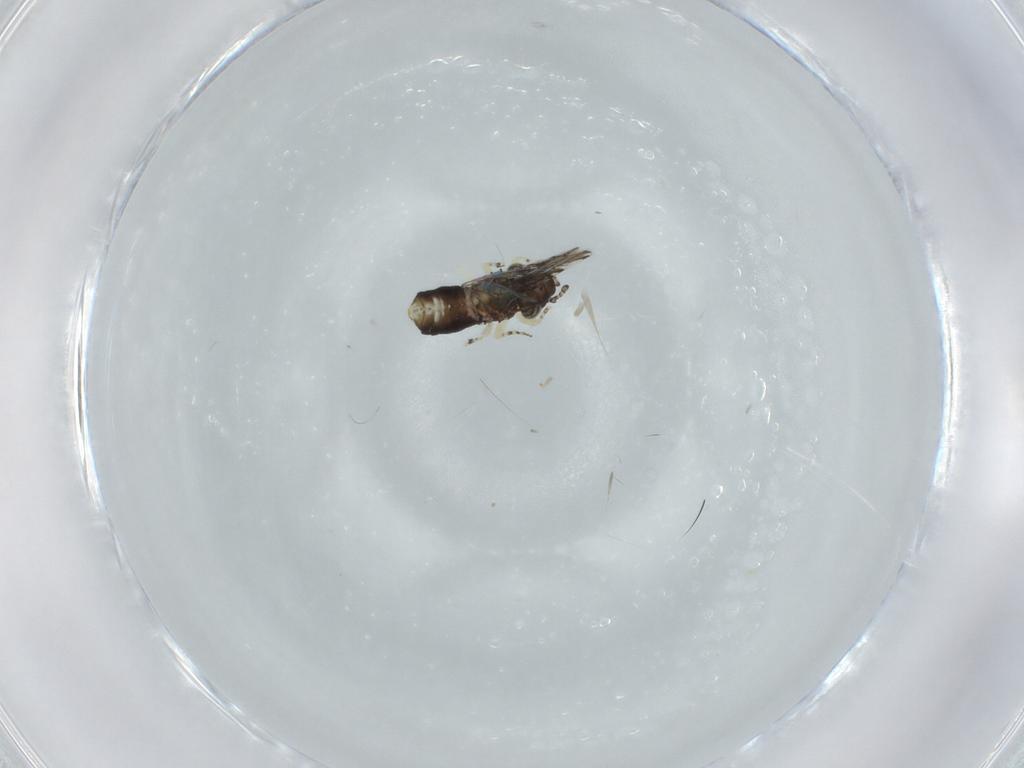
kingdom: Animalia
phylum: Arthropoda
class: Insecta
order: Psocodea
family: Psoquillidae
